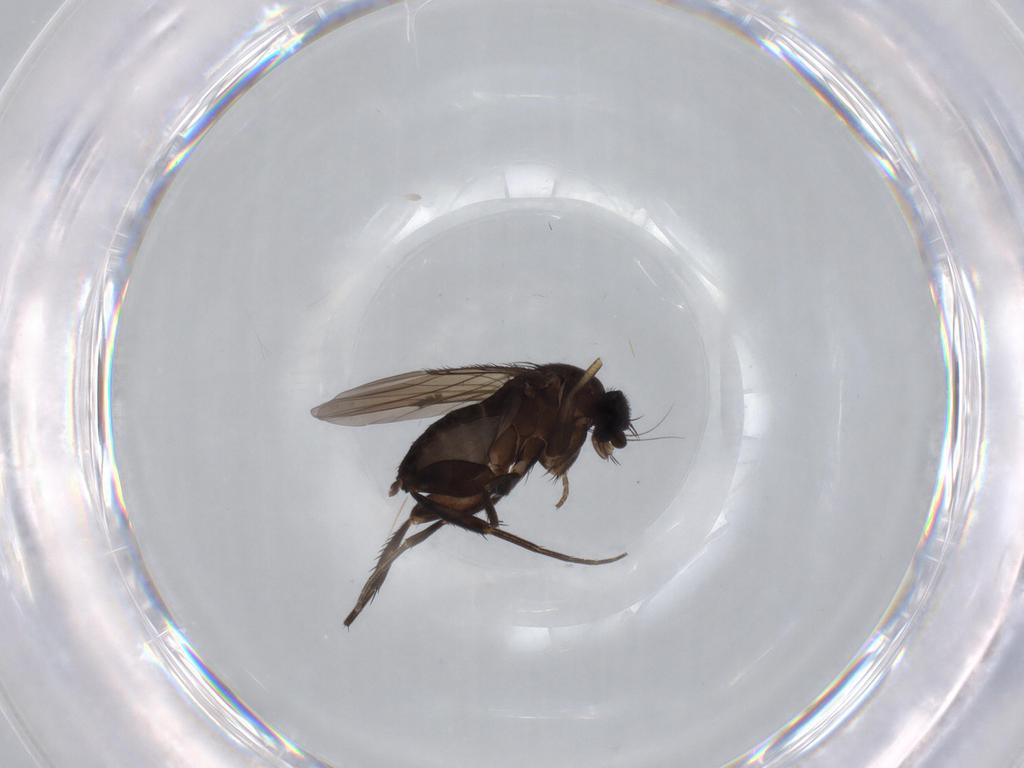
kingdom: Animalia
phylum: Arthropoda
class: Insecta
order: Diptera
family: Phoridae
